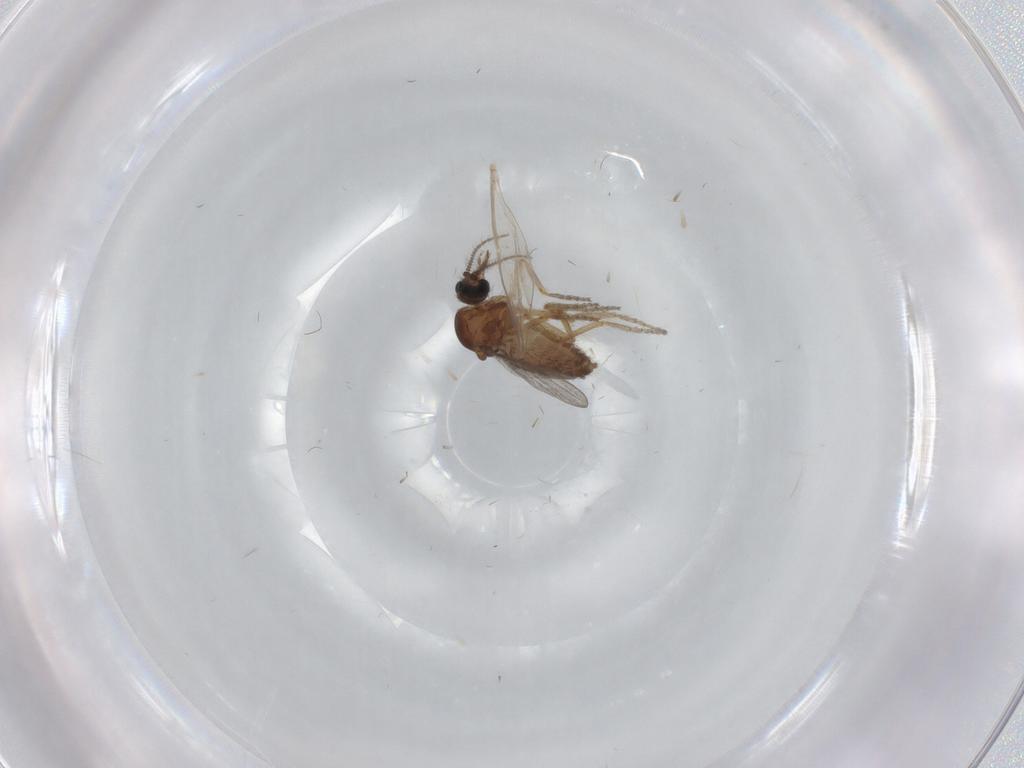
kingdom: Animalia
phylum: Arthropoda
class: Insecta
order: Diptera
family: Psychodidae
